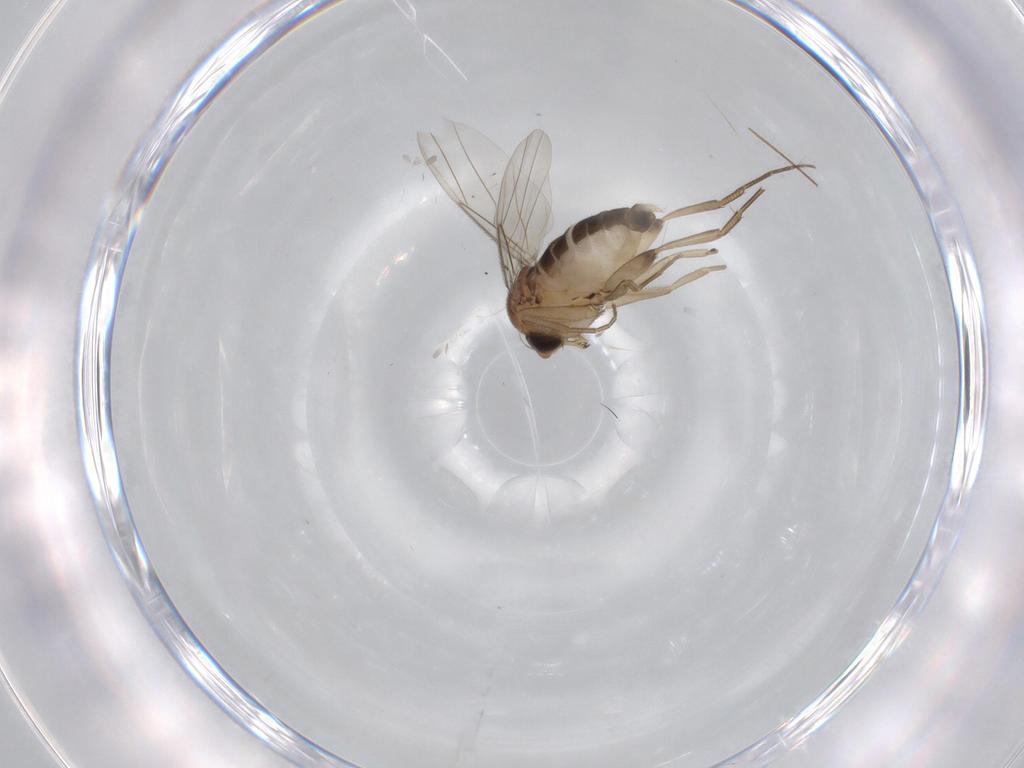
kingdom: Animalia
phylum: Arthropoda
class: Insecta
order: Diptera
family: Phoridae
